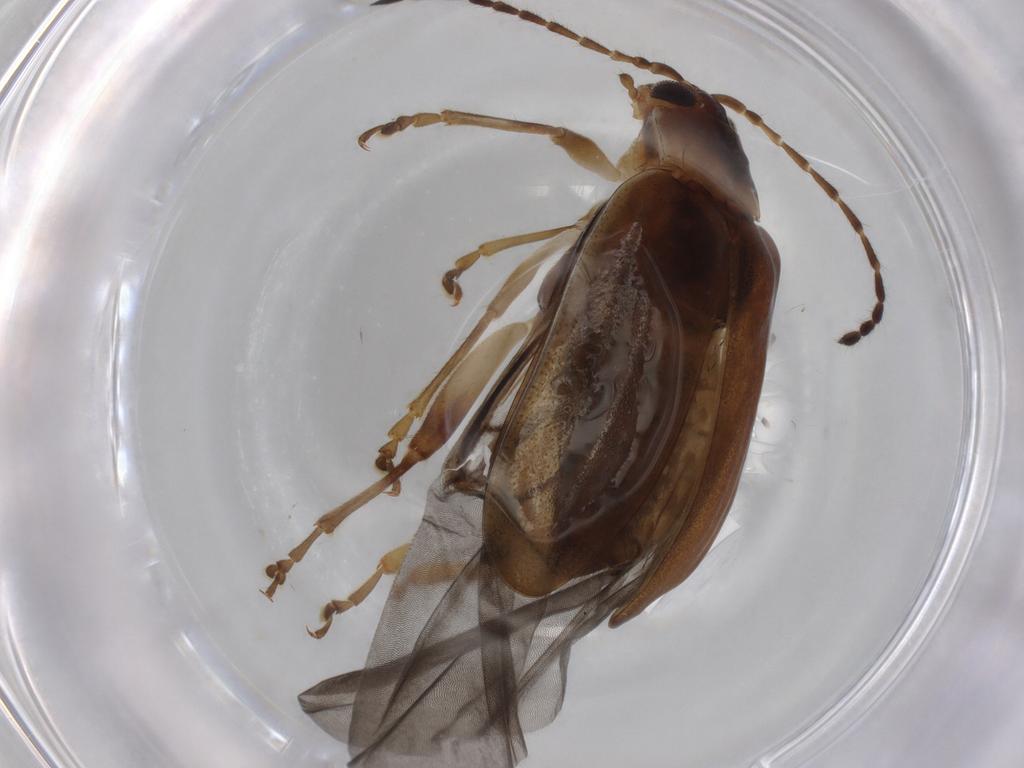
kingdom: Animalia
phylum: Arthropoda
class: Insecta
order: Coleoptera
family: Chrysomelidae
